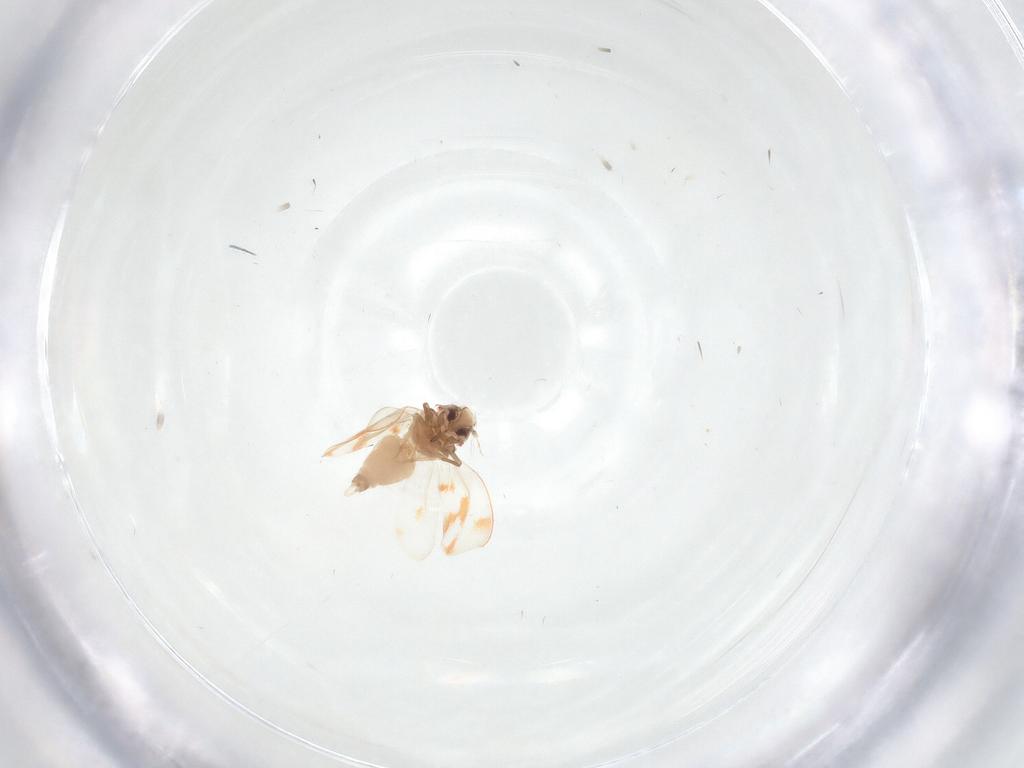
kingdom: Animalia
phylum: Arthropoda
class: Insecta
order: Hemiptera
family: Aleyrodidae
